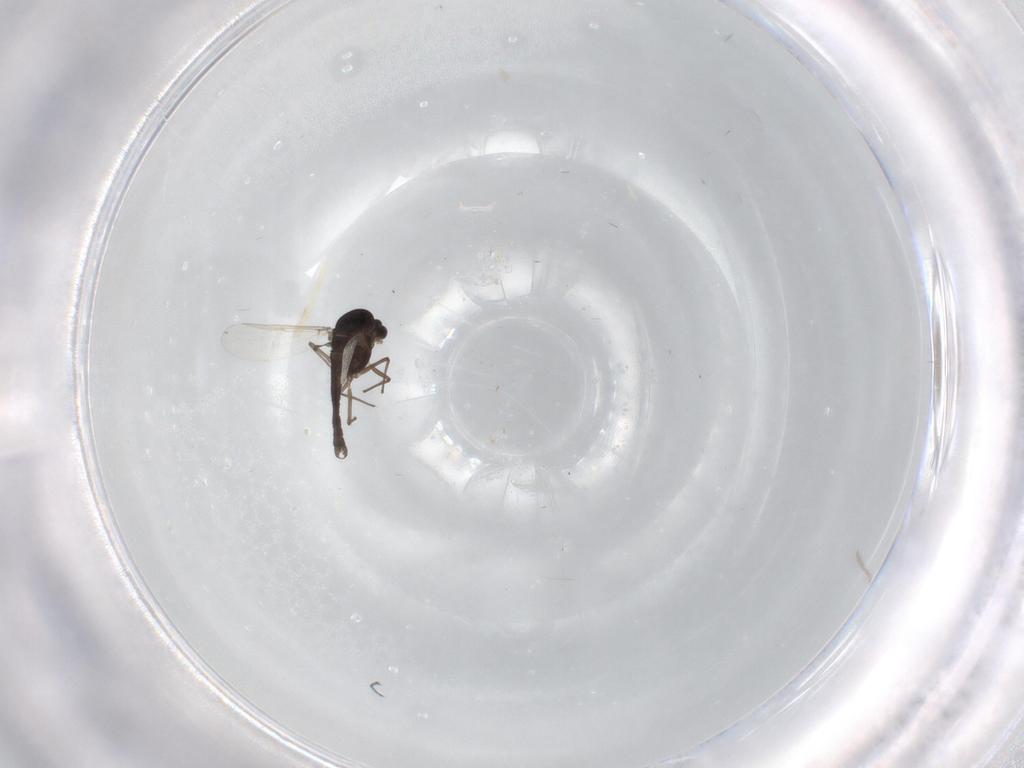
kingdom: Animalia
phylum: Arthropoda
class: Insecta
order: Diptera
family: Chironomidae
